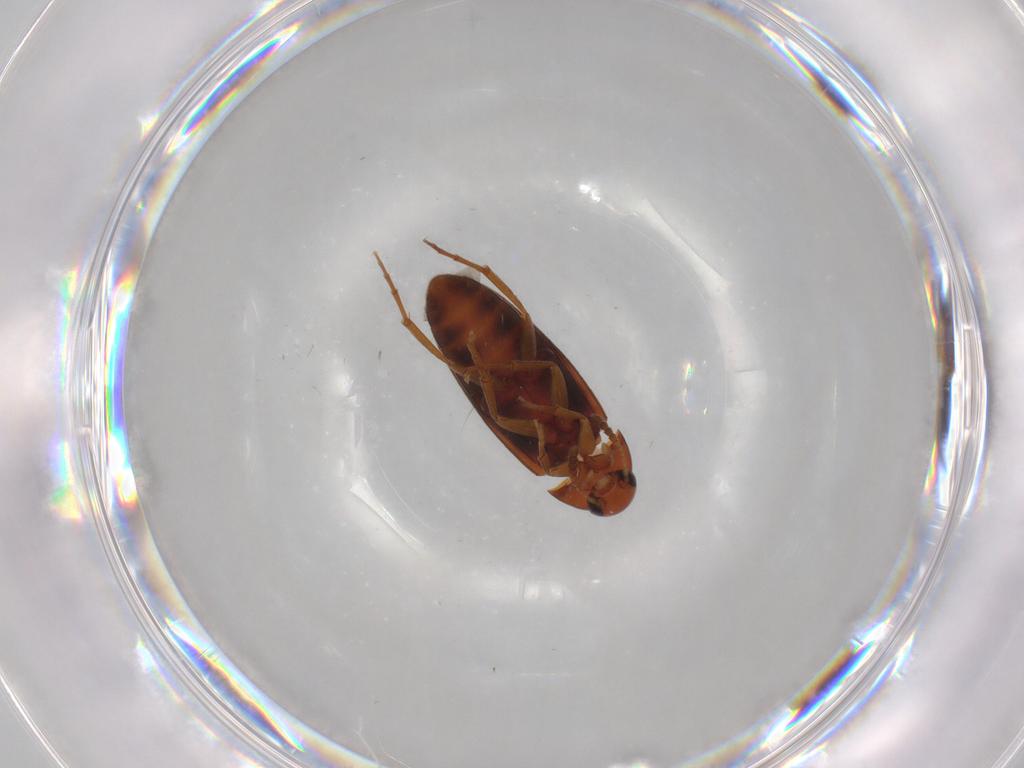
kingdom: Animalia
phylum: Arthropoda
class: Insecta
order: Coleoptera
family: Scraptiidae
